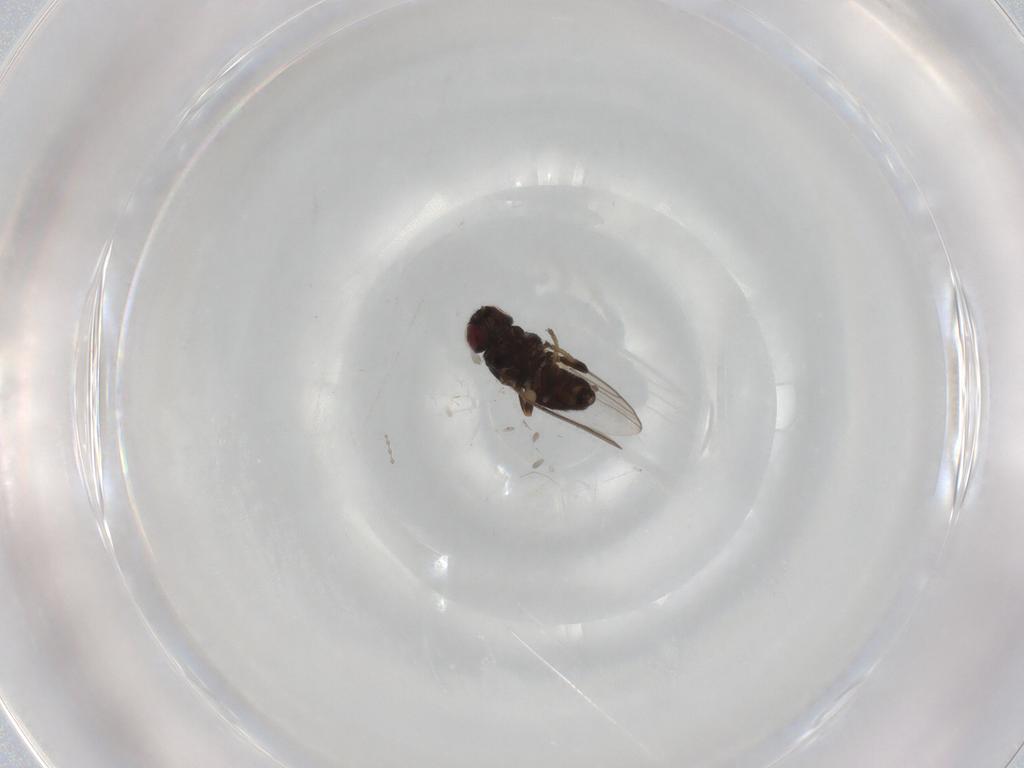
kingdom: Animalia
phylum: Arthropoda
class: Insecta
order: Diptera
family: Chloropidae
